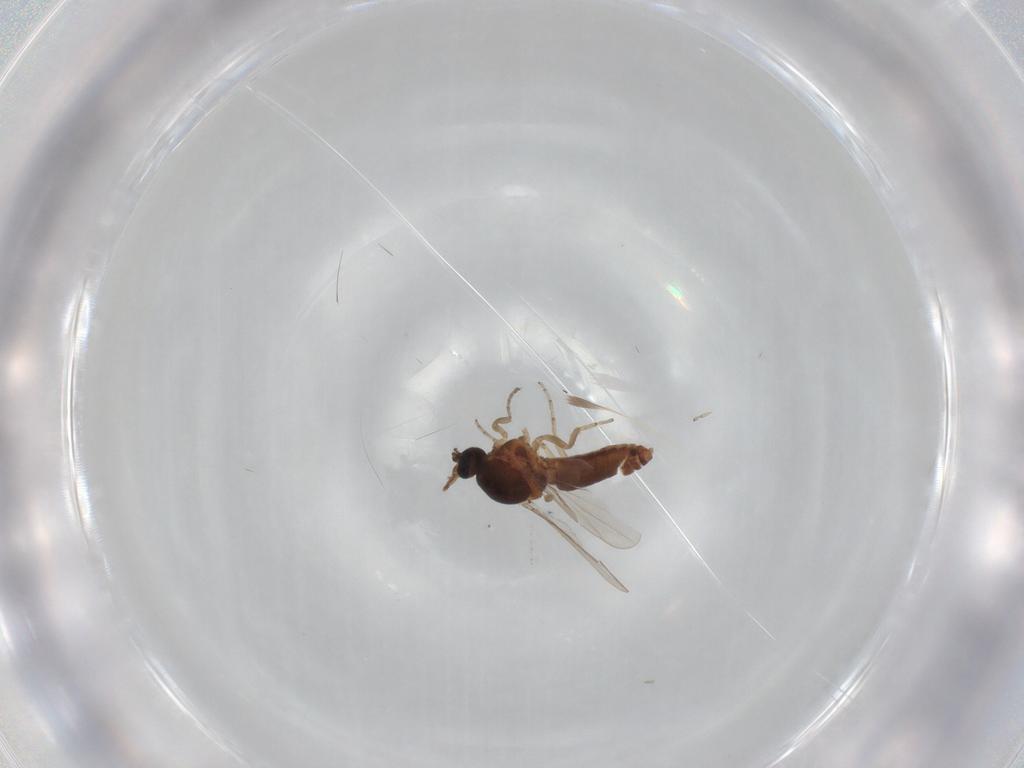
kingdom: Animalia
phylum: Arthropoda
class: Insecta
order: Diptera
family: Ceratopogonidae
